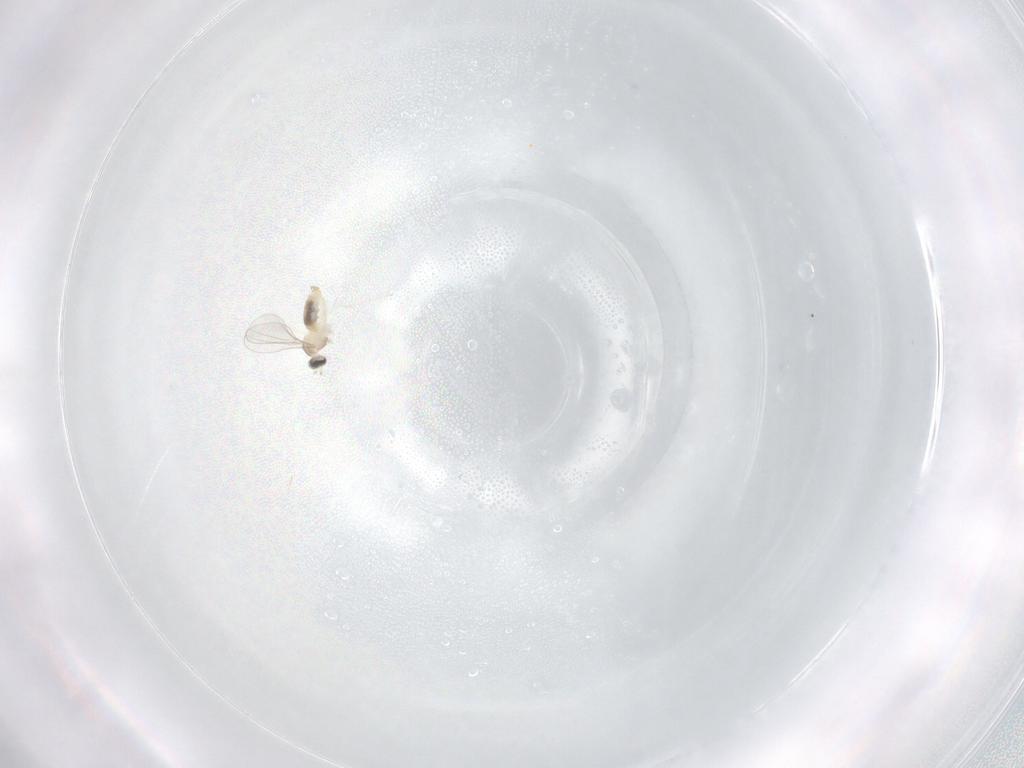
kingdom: Animalia
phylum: Arthropoda
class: Insecta
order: Diptera
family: Cecidomyiidae
